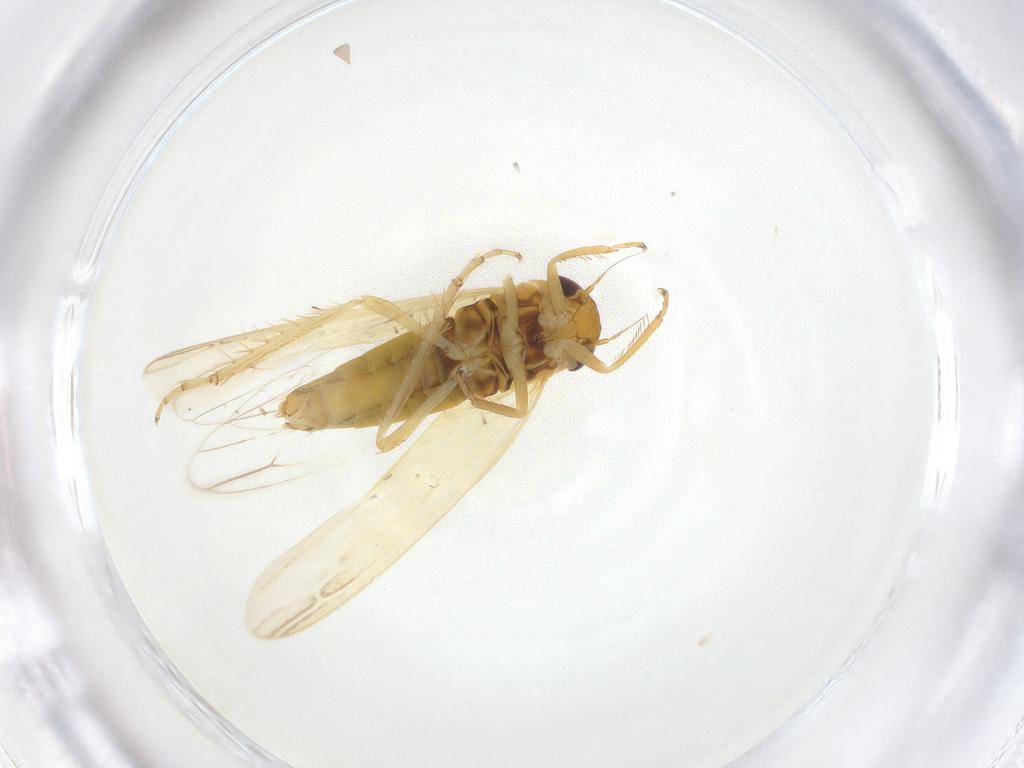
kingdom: Animalia
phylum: Arthropoda
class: Insecta
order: Hemiptera
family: Cicadellidae
